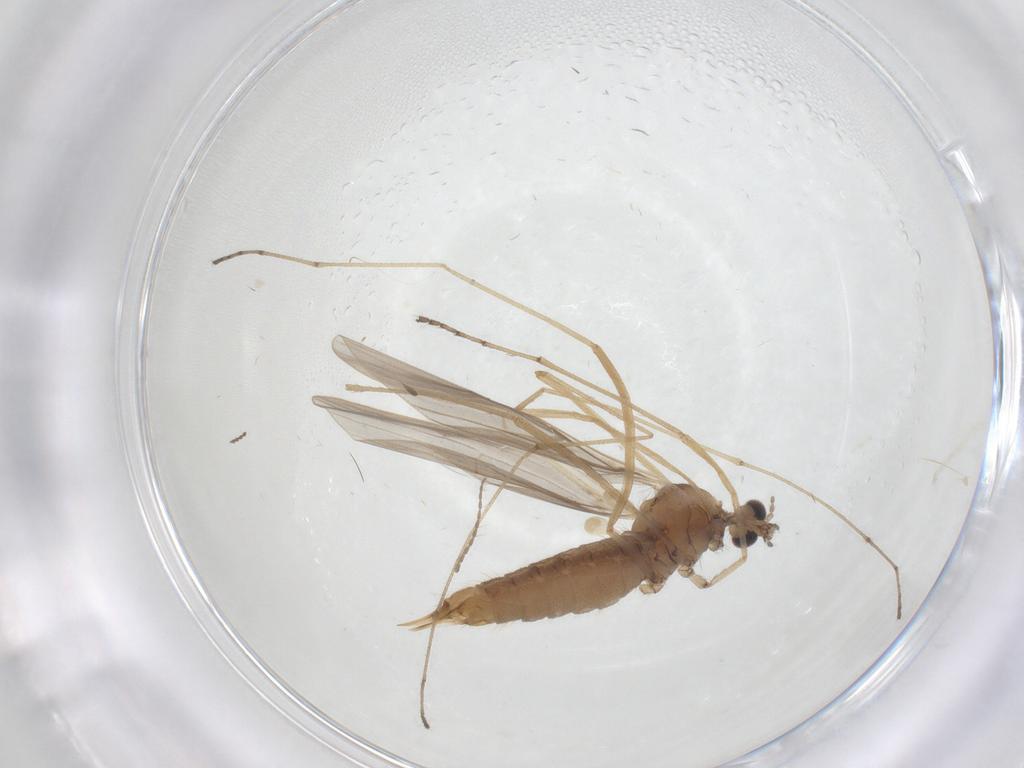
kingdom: Animalia
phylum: Arthropoda
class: Insecta
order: Diptera
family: Limoniidae
